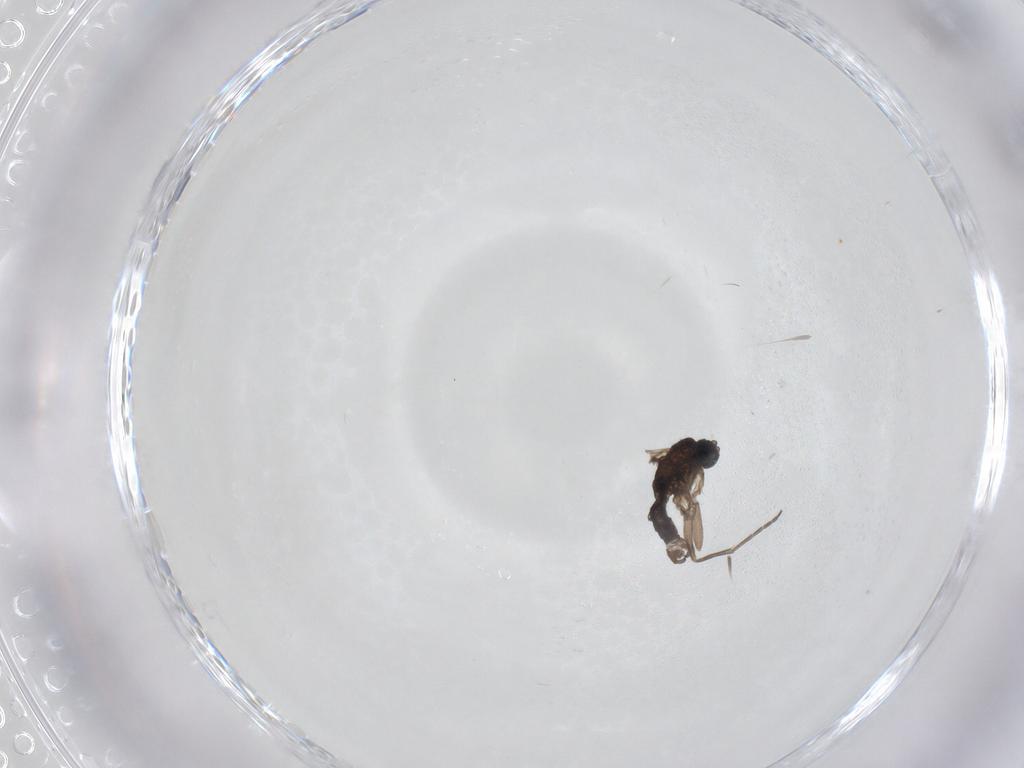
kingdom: Animalia
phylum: Arthropoda
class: Insecta
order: Diptera
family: Sciaridae
